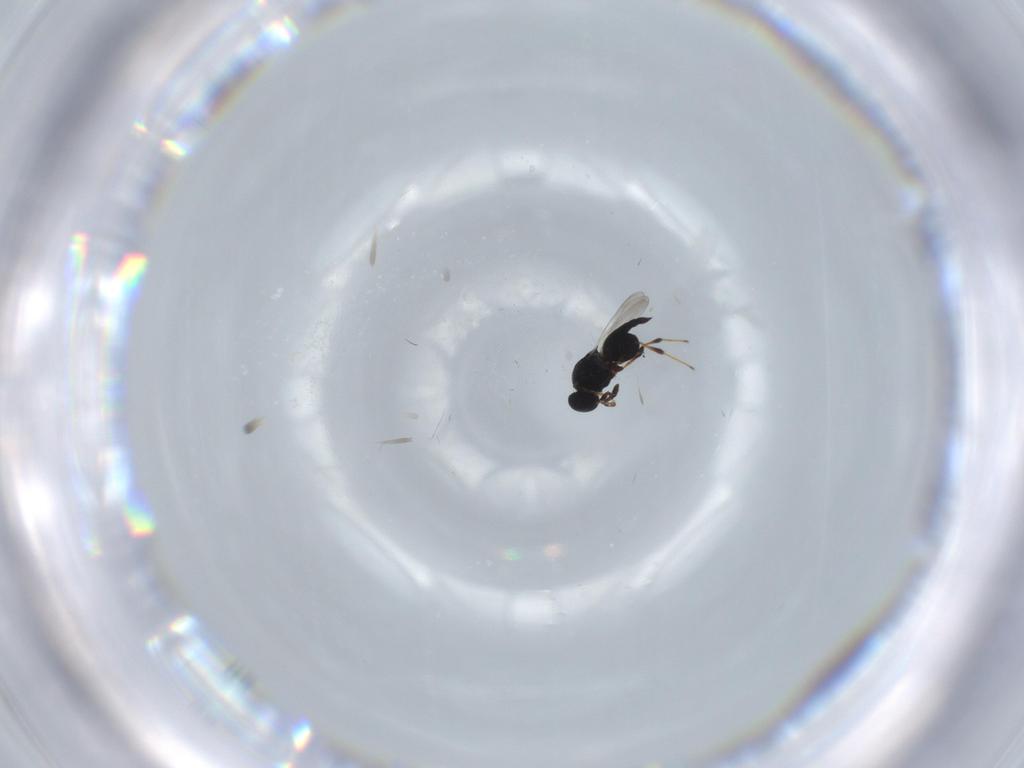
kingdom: Animalia
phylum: Arthropoda
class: Insecta
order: Hymenoptera
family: Platygastridae
